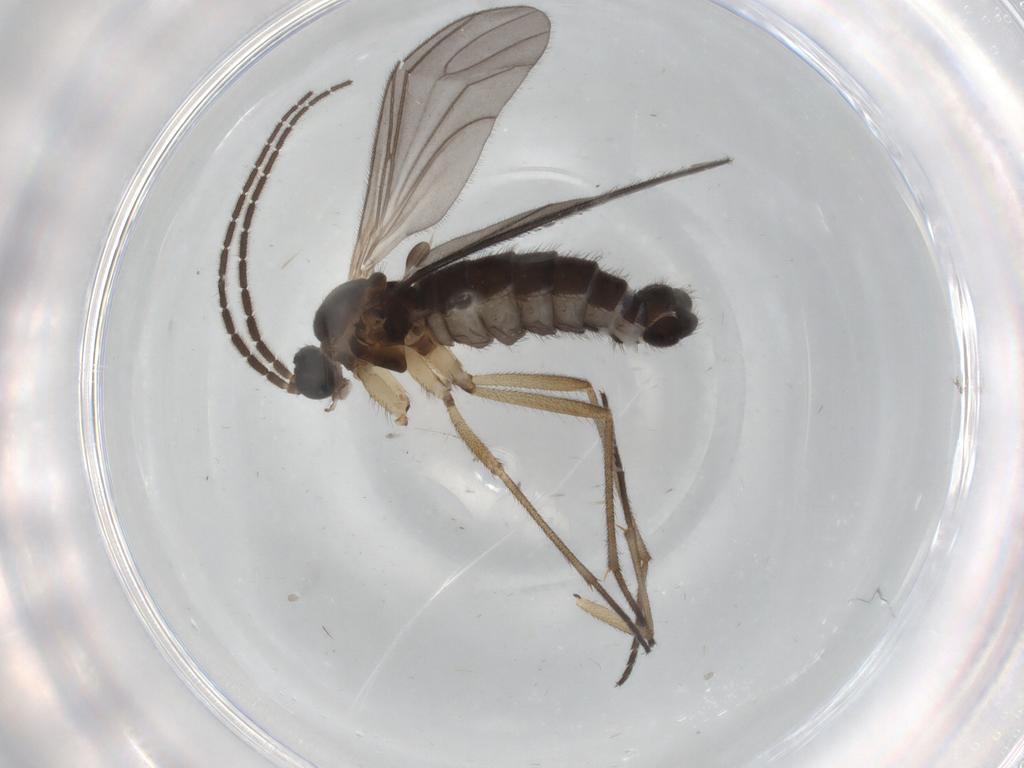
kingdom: Animalia
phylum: Arthropoda
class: Insecta
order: Diptera
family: Sciaridae
